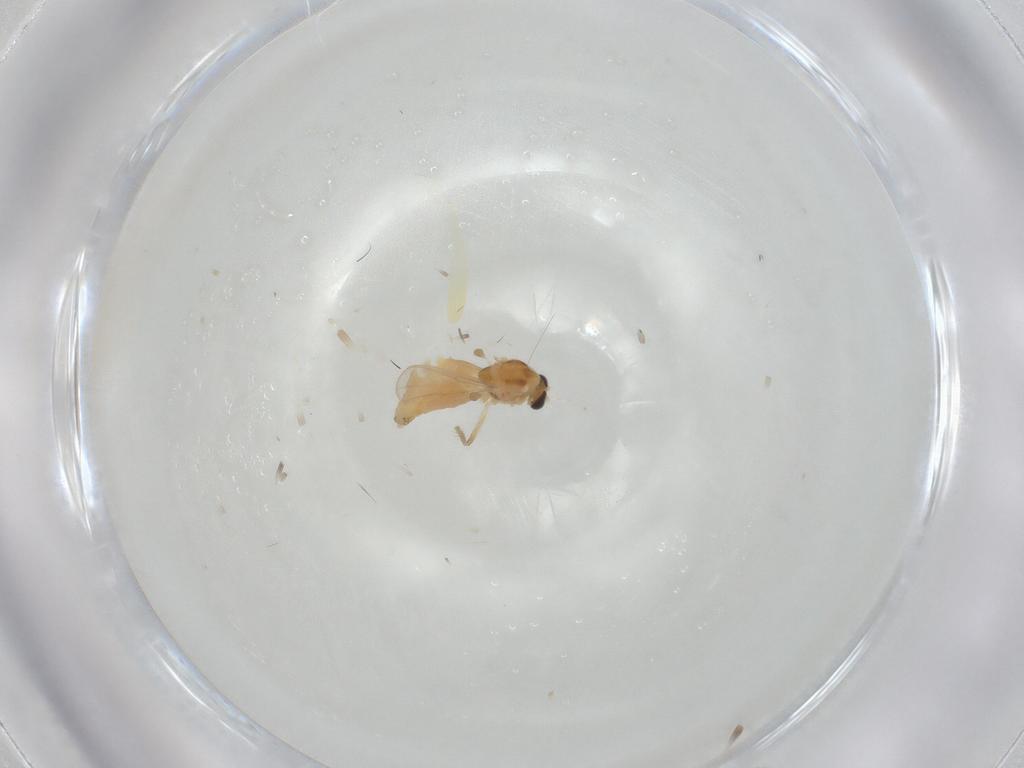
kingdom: Animalia
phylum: Arthropoda
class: Insecta
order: Diptera
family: Chironomidae
